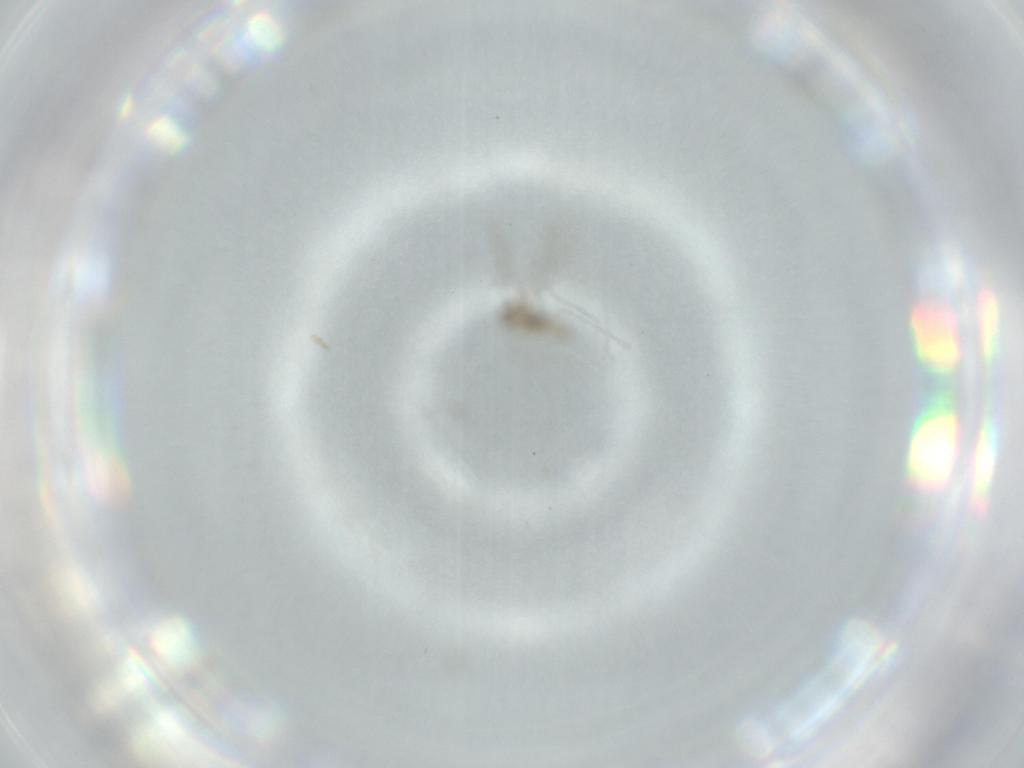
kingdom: Animalia
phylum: Arthropoda
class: Insecta
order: Diptera
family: Cecidomyiidae
